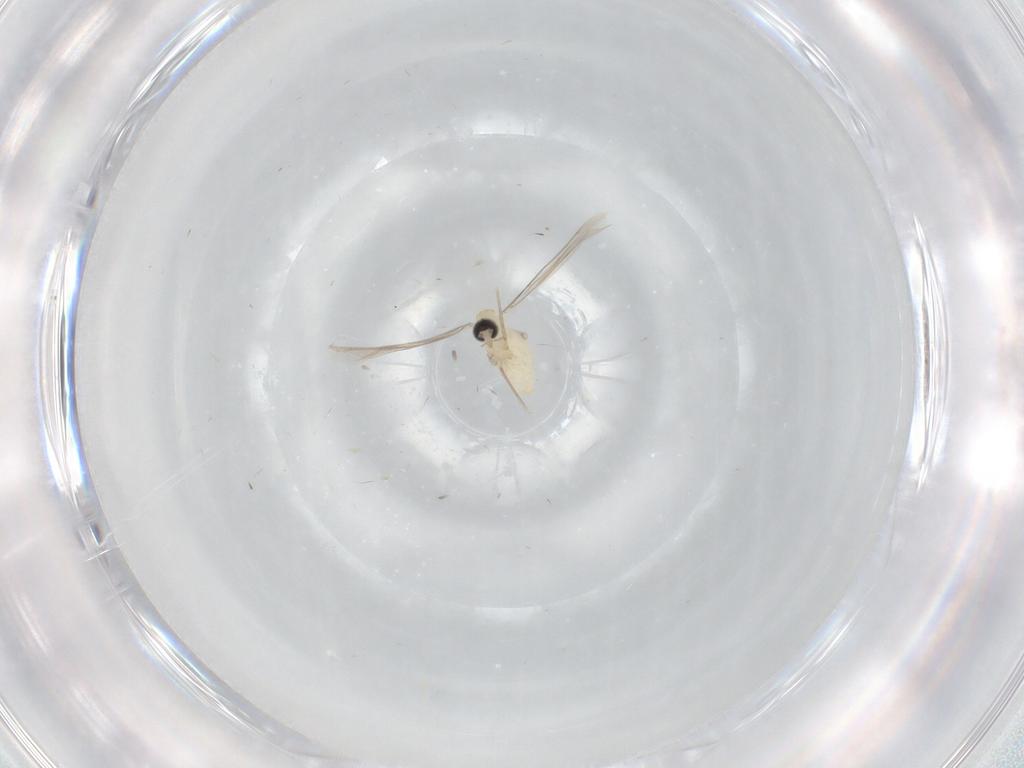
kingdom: Animalia
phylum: Arthropoda
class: Insecta
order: Diptera
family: Cecidomyiidae
